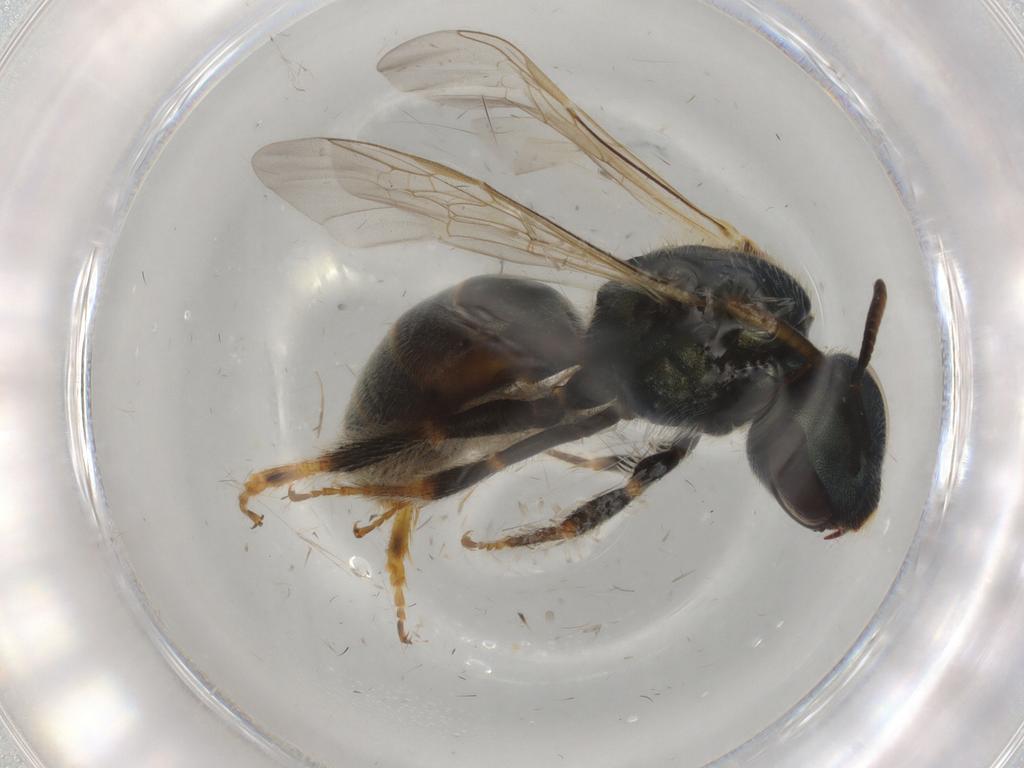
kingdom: Animalia
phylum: Arthropoda
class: Insecta
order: Hymenoptera
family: Halictidae
